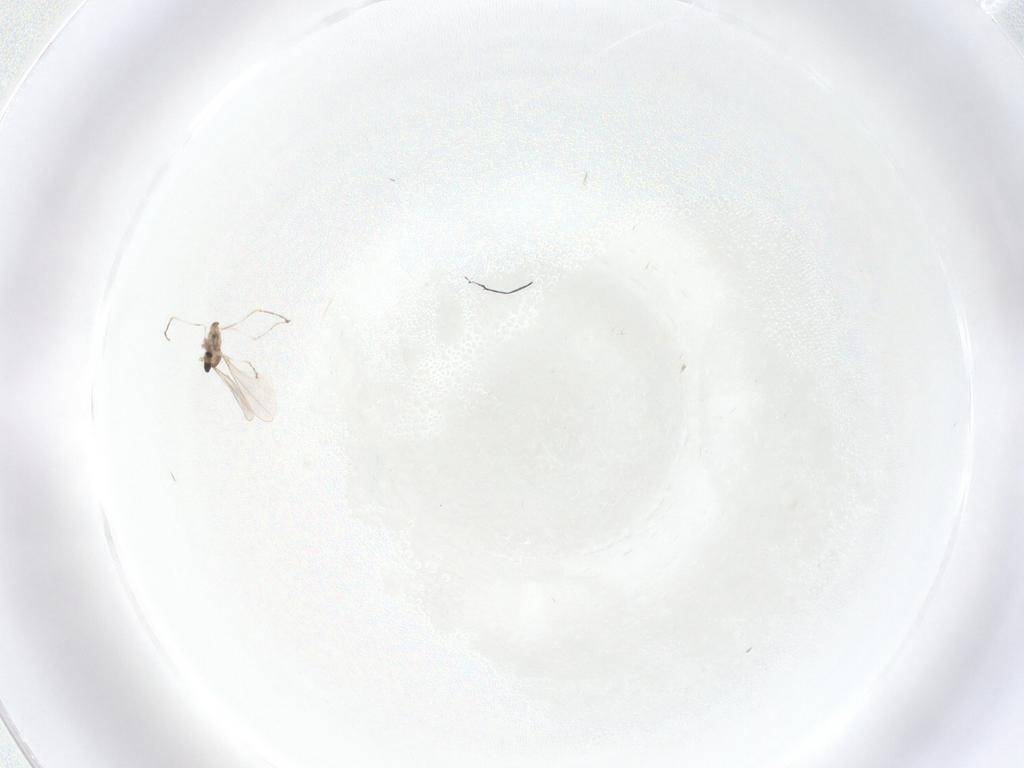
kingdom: Animalia
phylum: Arthropoda
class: Insecta
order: Diptera
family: Cecidomyiidae
